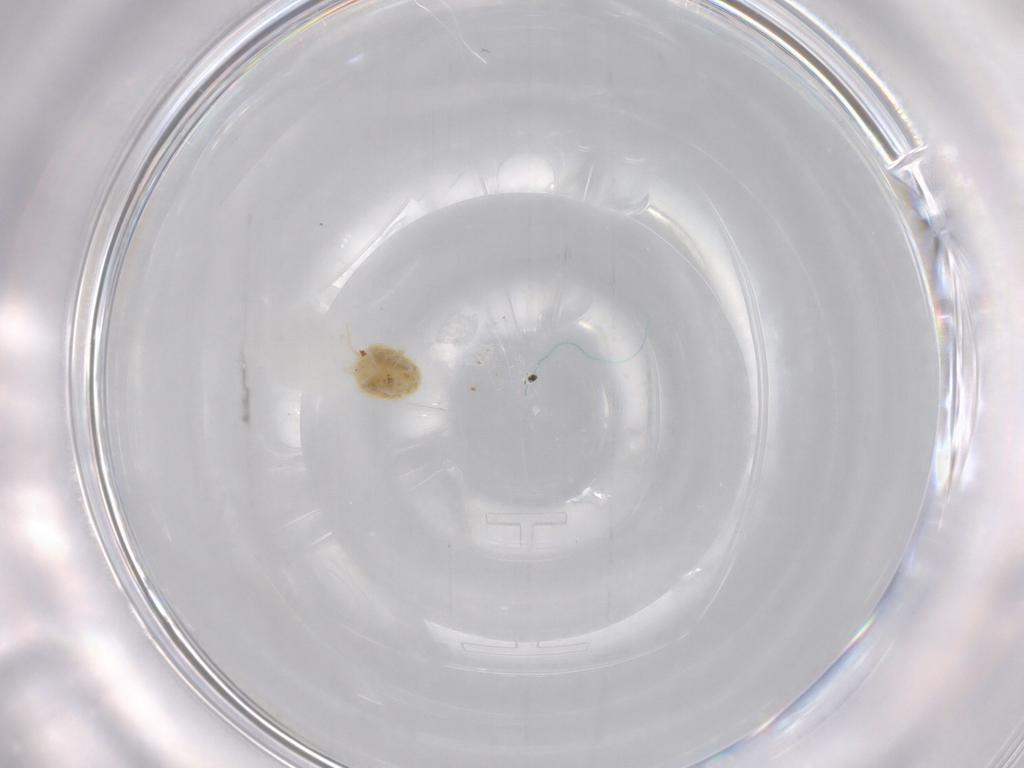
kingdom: Animalia
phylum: Arthropoda
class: Arachnida
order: Trombidiformes
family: Tetranychidae
